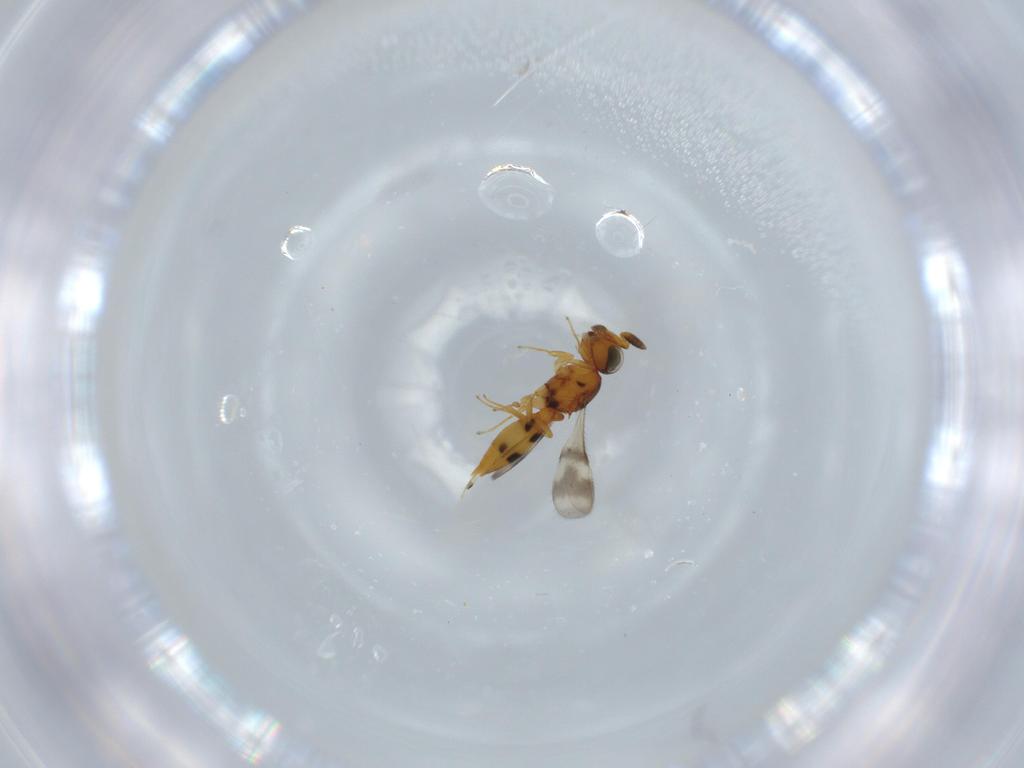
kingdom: Animalia
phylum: Arthropoda
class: Insecta
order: Hymenoptera
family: Scelionidae
